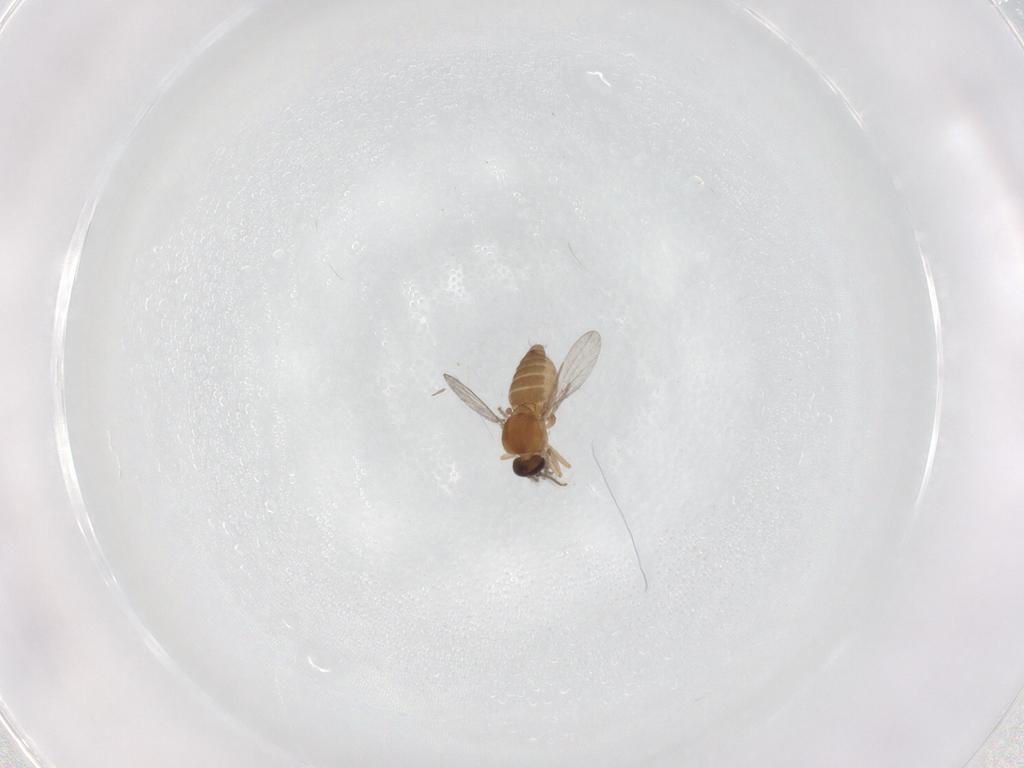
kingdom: Animalia
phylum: Arthropoda
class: Insecta
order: Diptera
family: Ceratopogonidae
